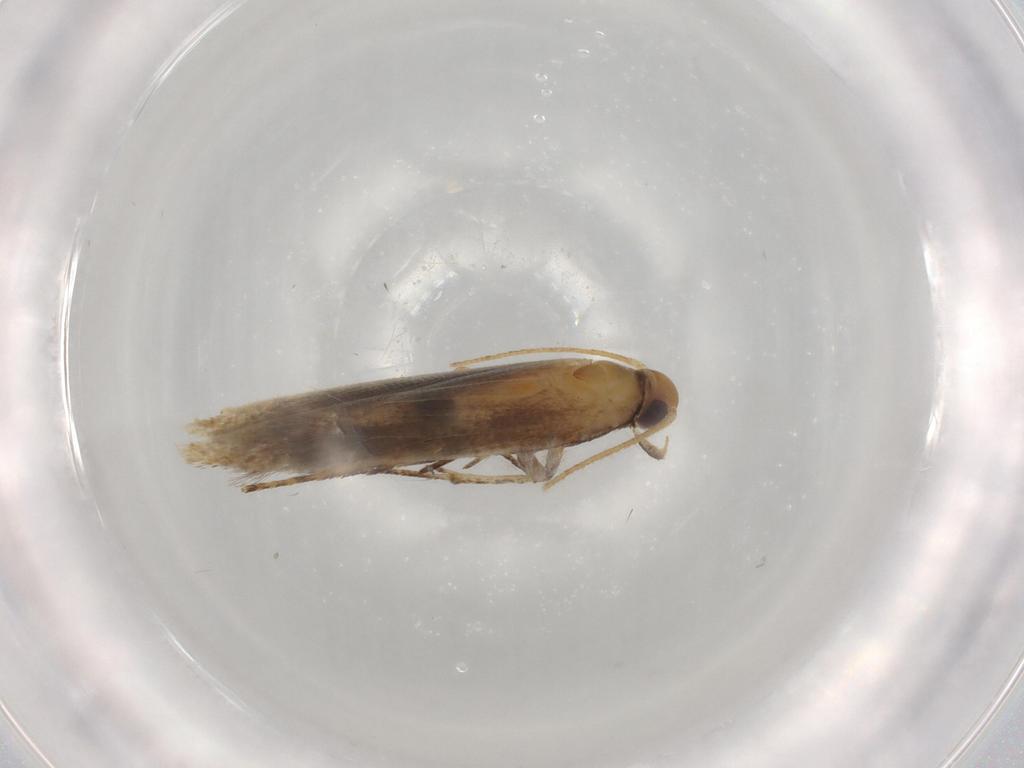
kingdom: Animalia
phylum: Arthropoda
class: Insecta
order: Lepidoptera
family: Gelechiidae
